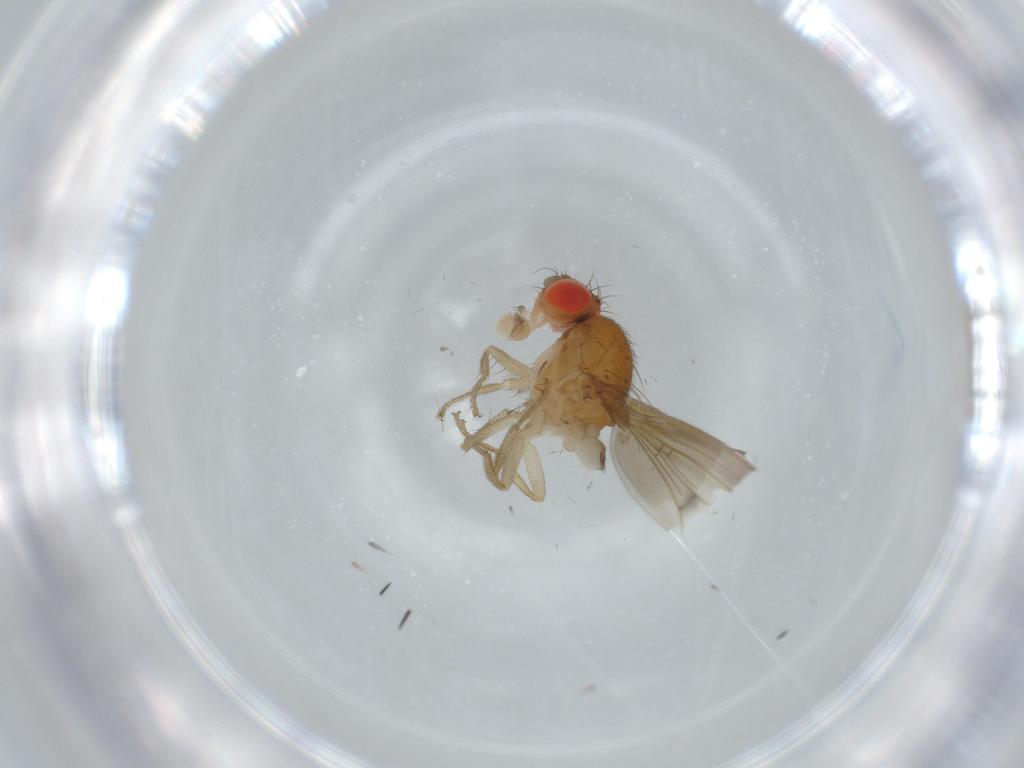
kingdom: Animalia
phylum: Arthropoda
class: Insecta
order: Diptera
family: Drosophilidae
